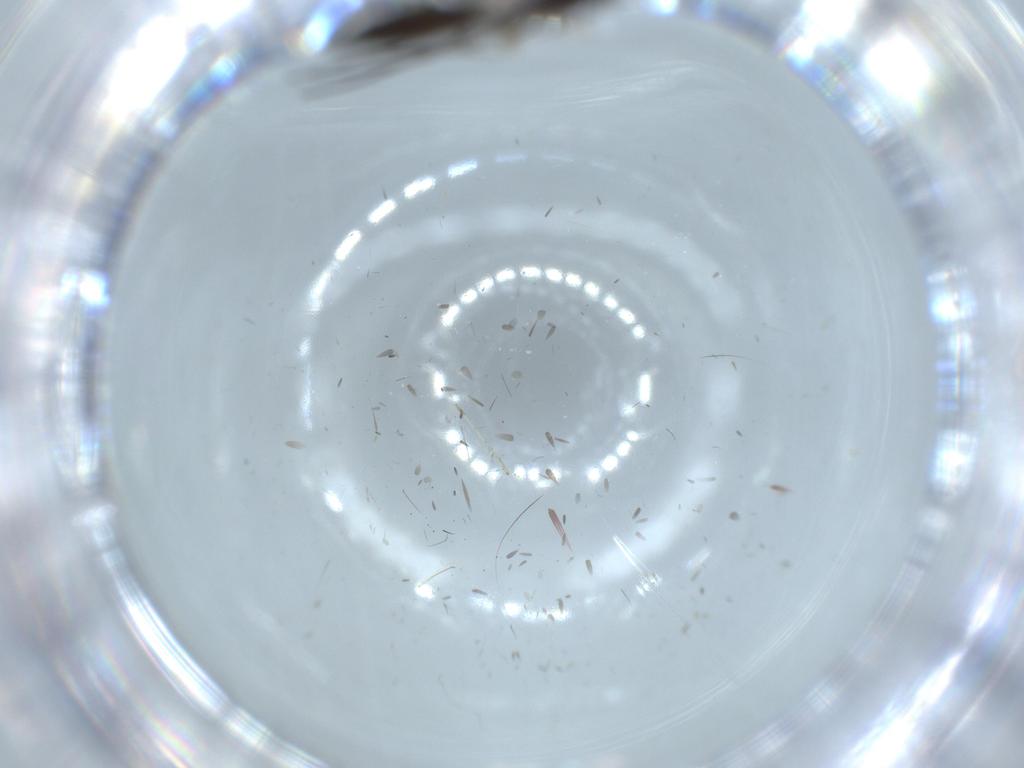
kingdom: Animalia
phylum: Arthropoda
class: Insecta
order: Diptera
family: Sciaridae
